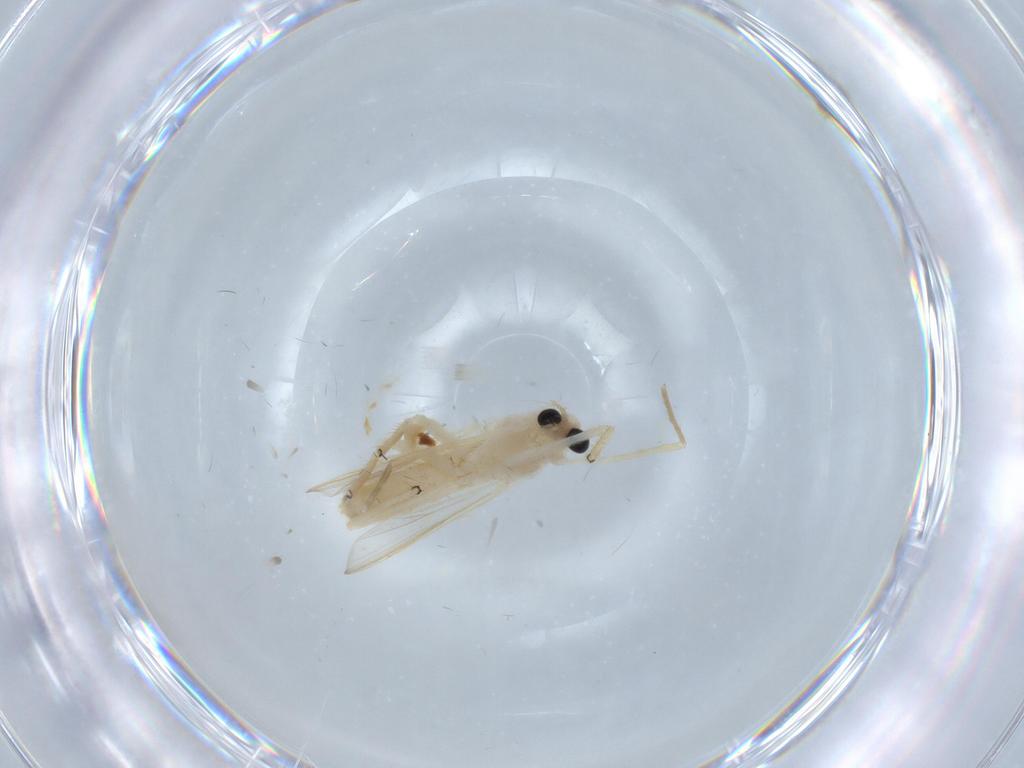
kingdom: Animalia
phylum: Arthropoda
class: Insecta
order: Diptera
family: Chironomidae
